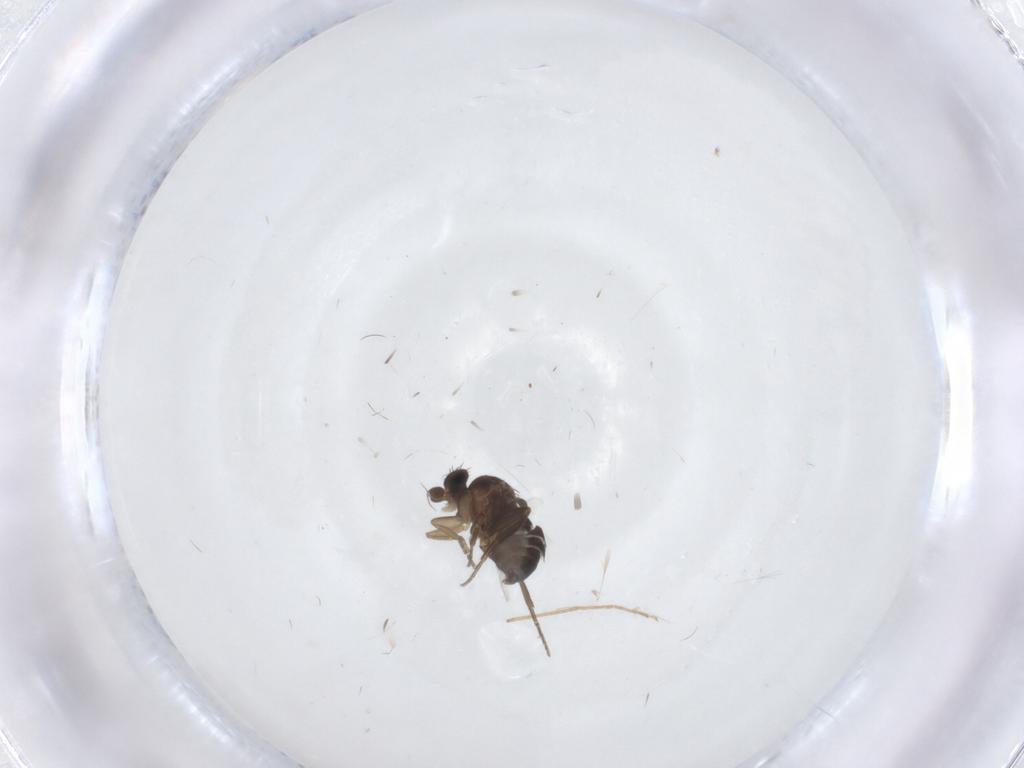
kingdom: Animalia
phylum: Arthropoda
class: Insecta
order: Diptera
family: Phoridae
